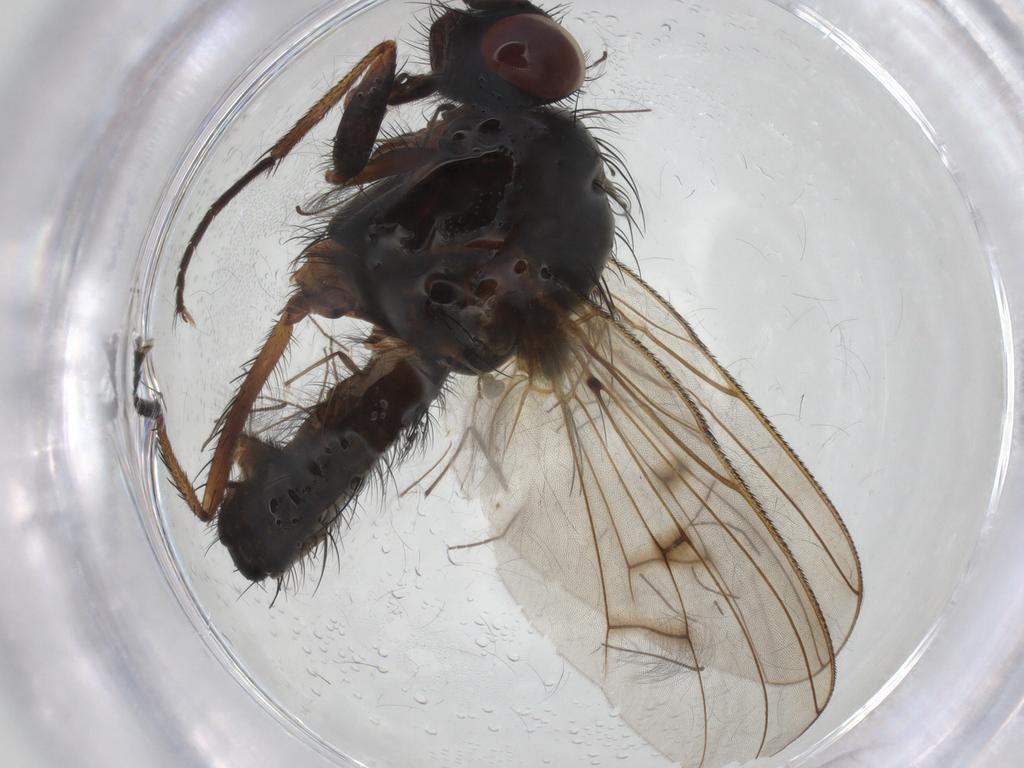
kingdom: Animalia
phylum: Arthropoda
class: Insecta
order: Diptera
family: Anthomyiidae
